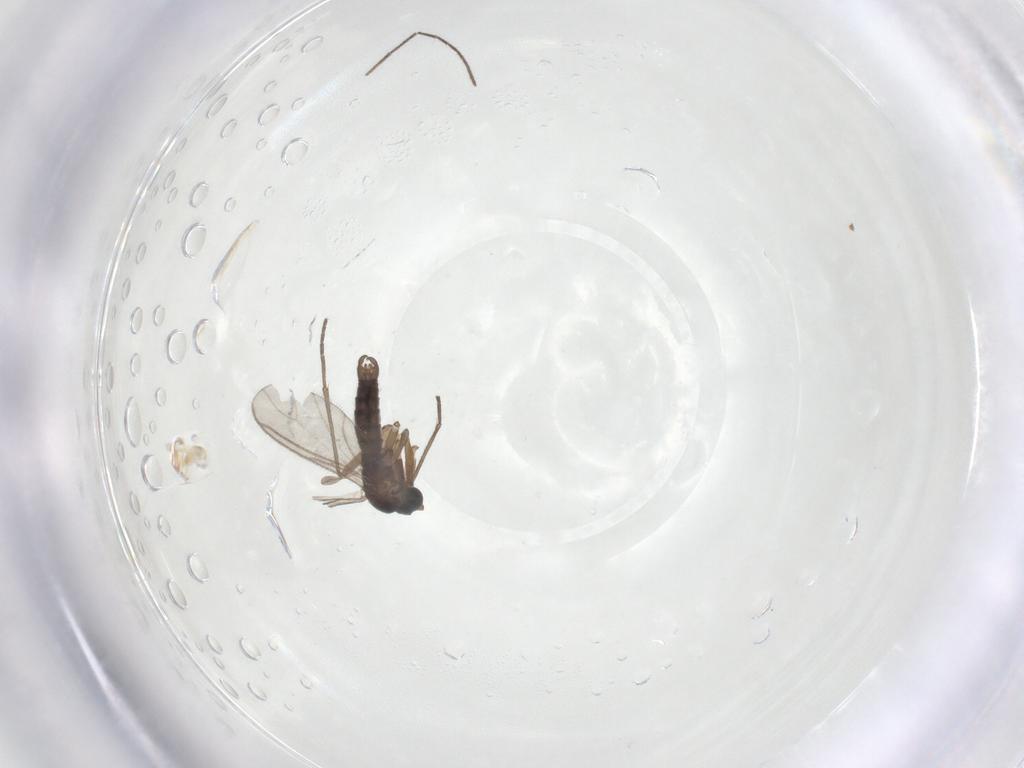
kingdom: Animalia
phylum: Arthropoda
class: Insecta
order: Diptera
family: Sciaridae
